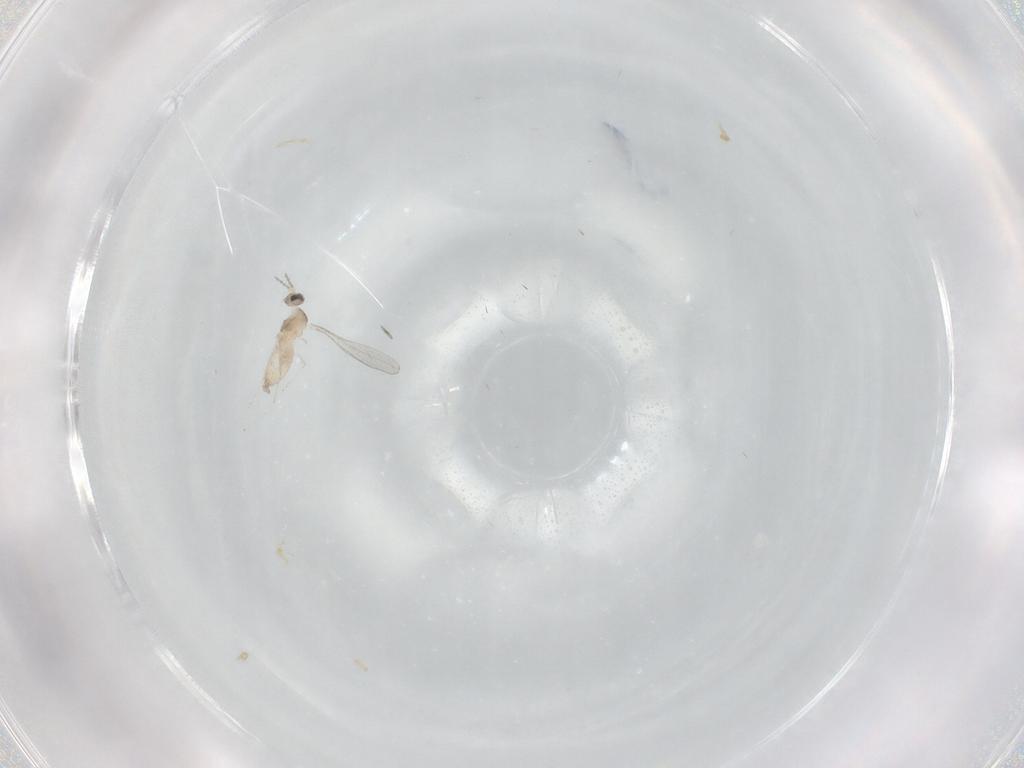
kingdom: Animalia
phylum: Arthropoda
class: Insecta
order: Diptera
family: Cecidomyiidae
